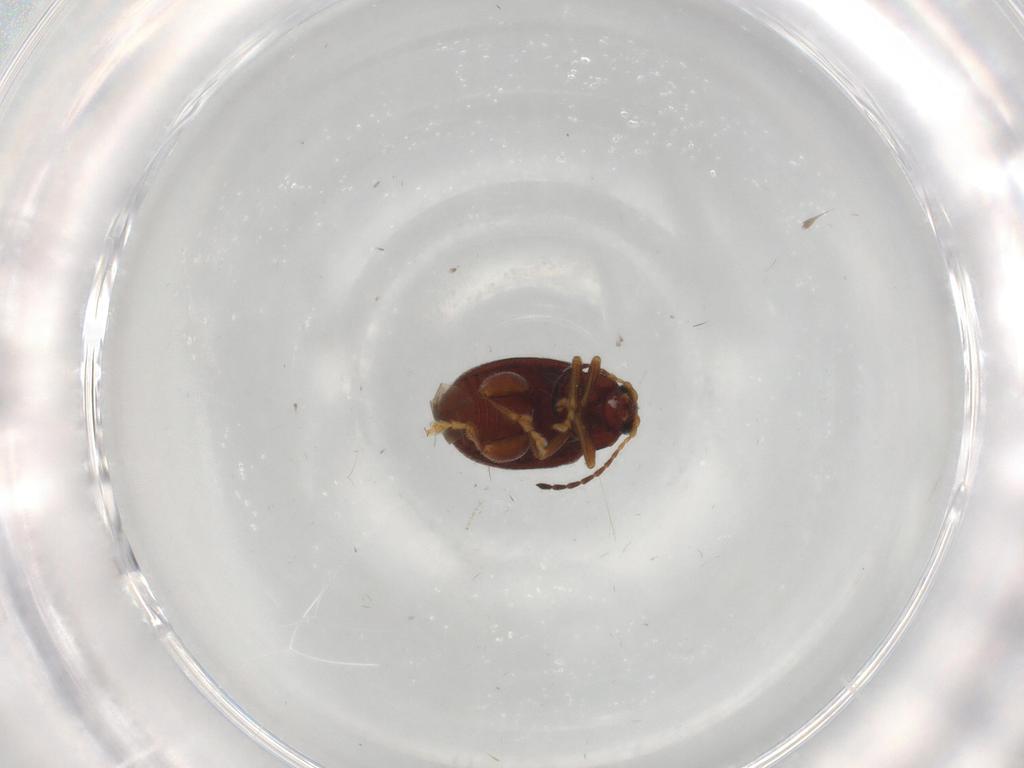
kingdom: Animalia
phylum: Arthropoda
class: Insecta
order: Coleoptera
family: Chrysomelidae
